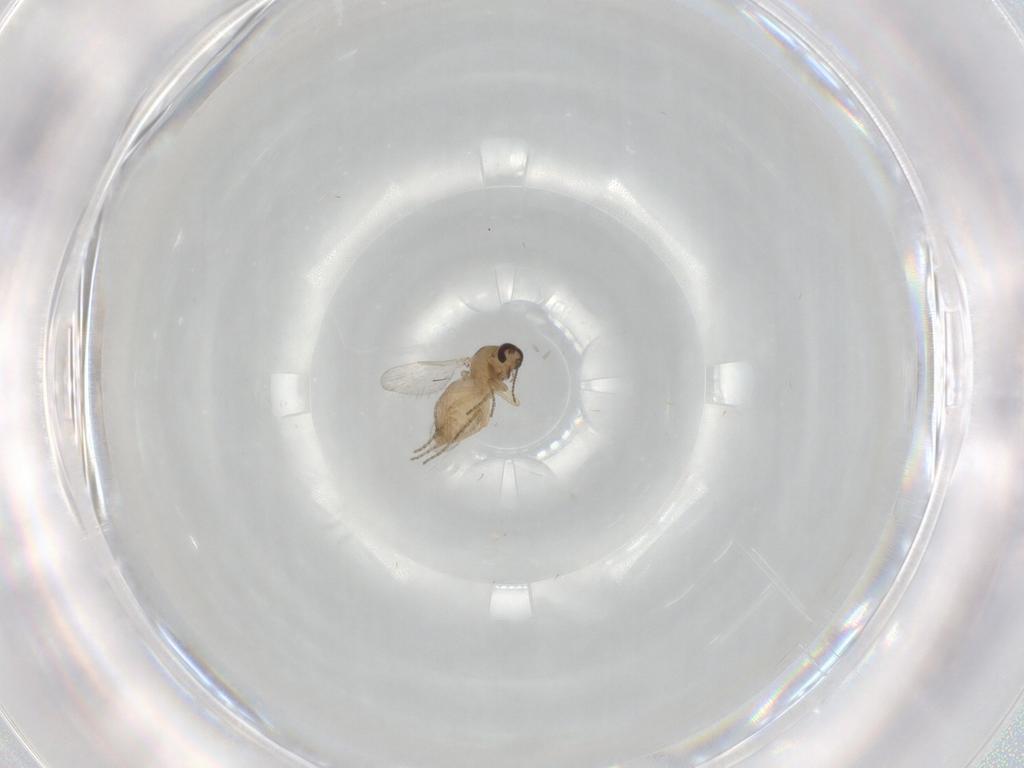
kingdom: Animalia
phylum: Arthropoda
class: Insecta
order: Diptera
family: Ceratopogonidae
